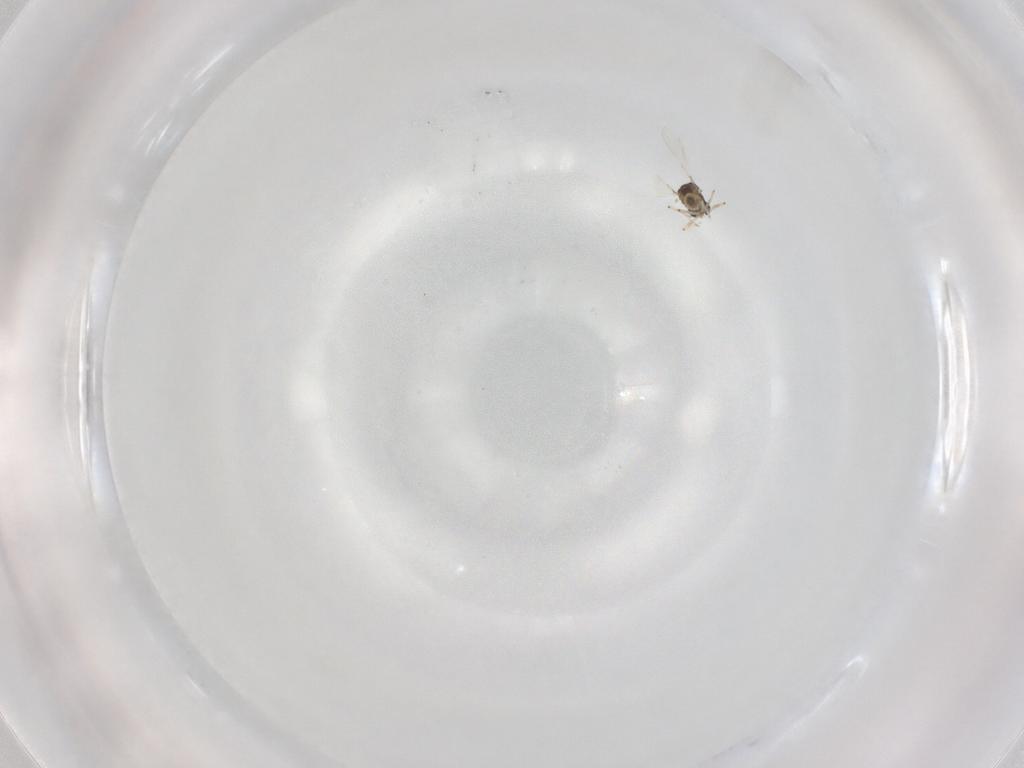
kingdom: Animalia
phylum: Arthropoda
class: Insecta
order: Diptera
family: Chironomidae
